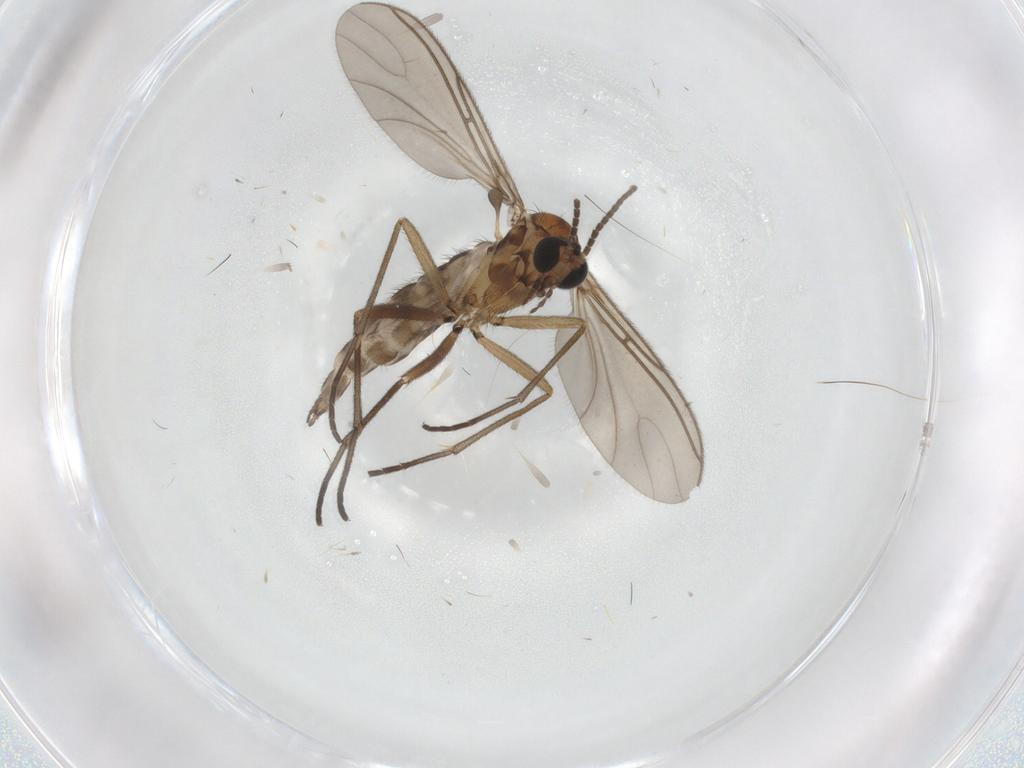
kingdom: Animalia
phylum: Arthropoda
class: Insecta
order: Diptera
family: Sciaridae
